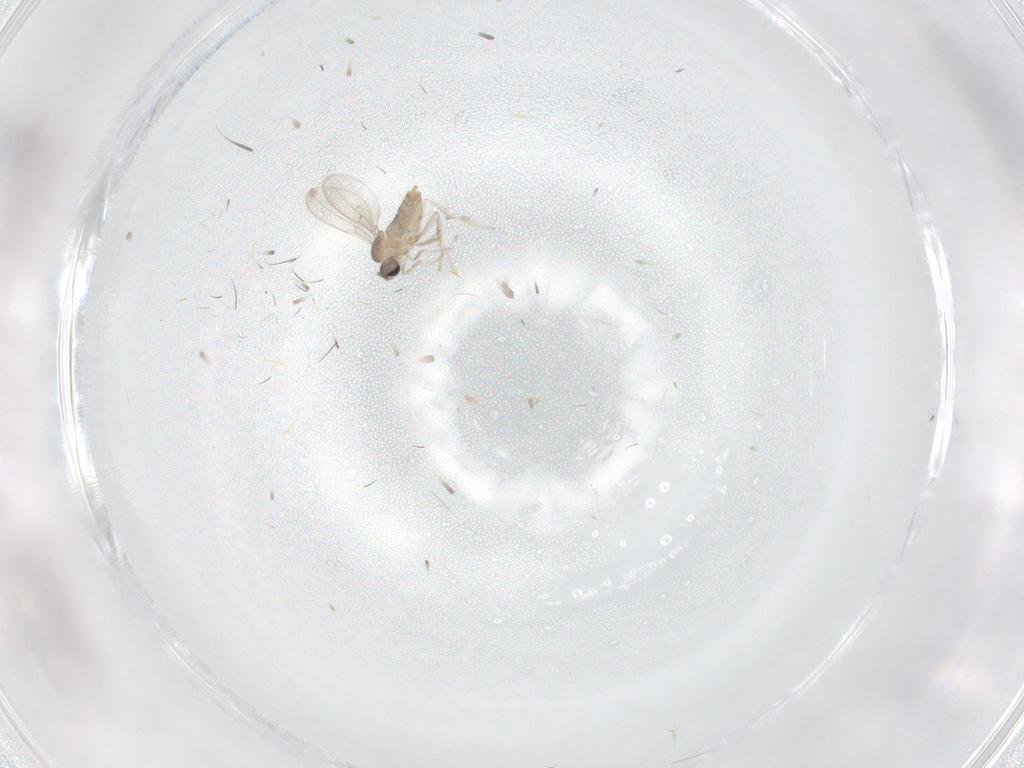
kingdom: Animalia
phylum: Arthropoda
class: Insecta
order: Diptera
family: Cecidomyiidae
